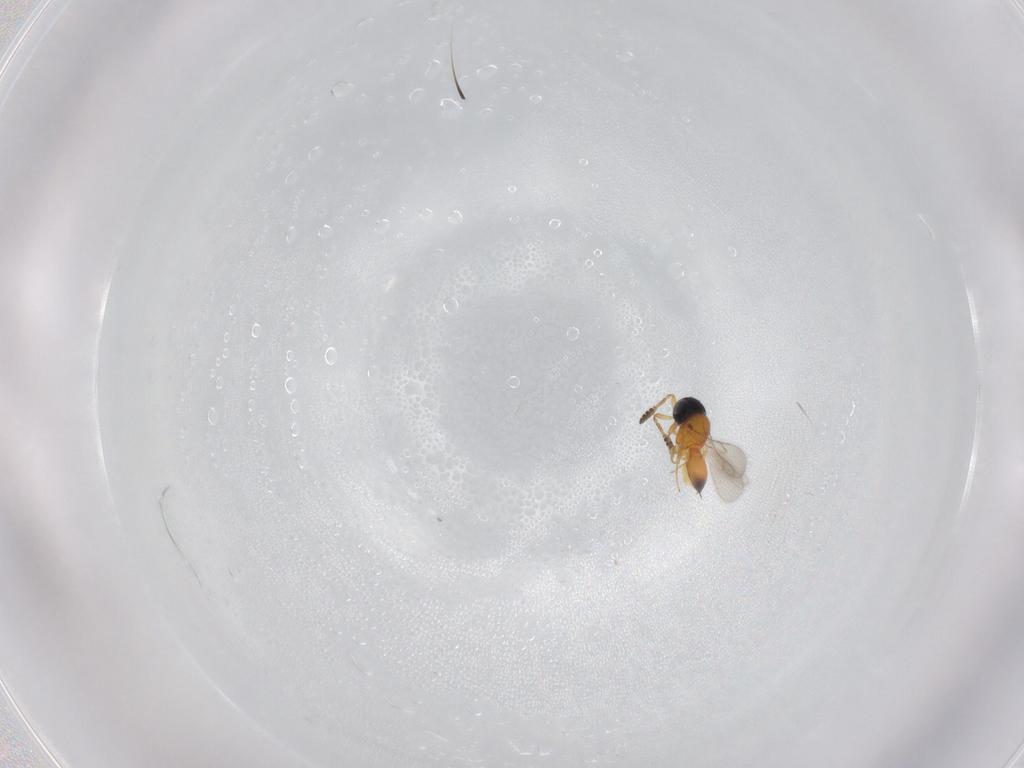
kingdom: Animalia
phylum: Arthropoda
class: Insecta
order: Hymenoptera
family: Scelionidae
